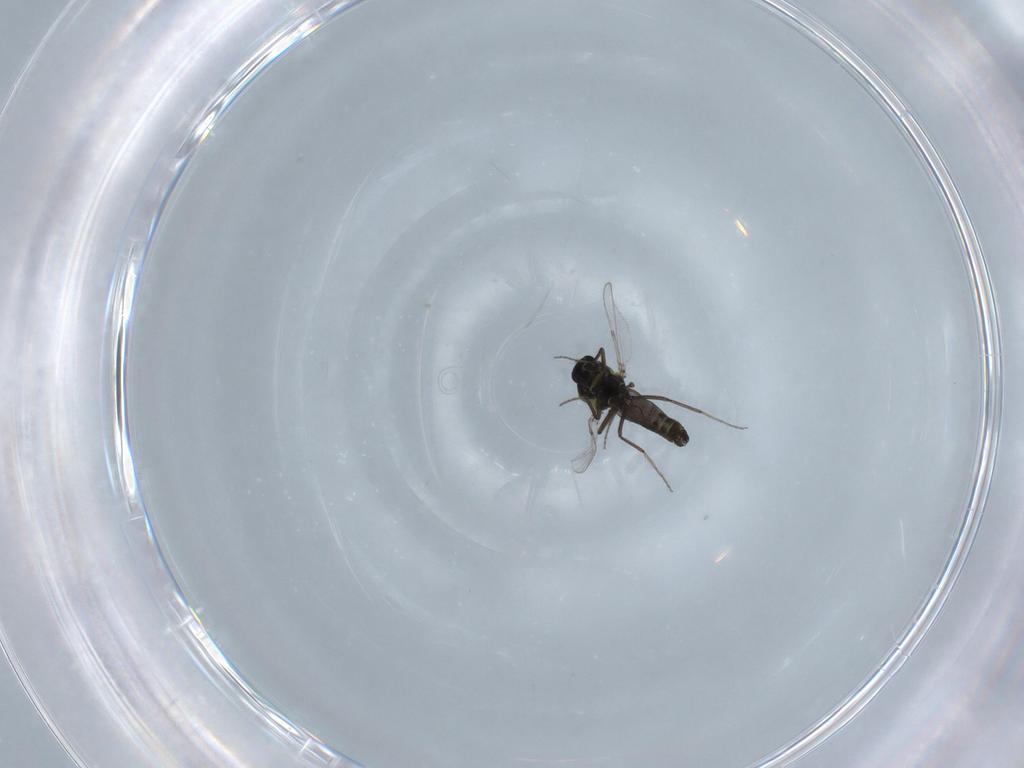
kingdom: Animalia
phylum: Arthropoda
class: Insecta
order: Diptera
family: Ceratopogonidae
